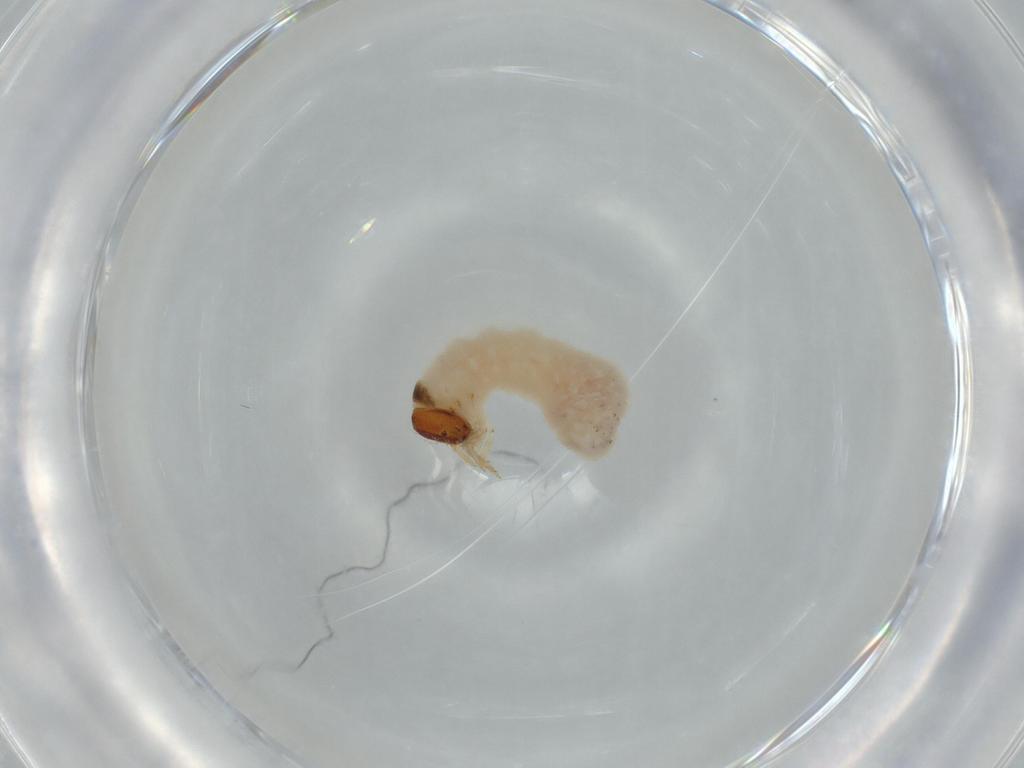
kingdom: Animalia
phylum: Arthropoda
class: Insecta
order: Coleoptera
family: Chrysomelidae
